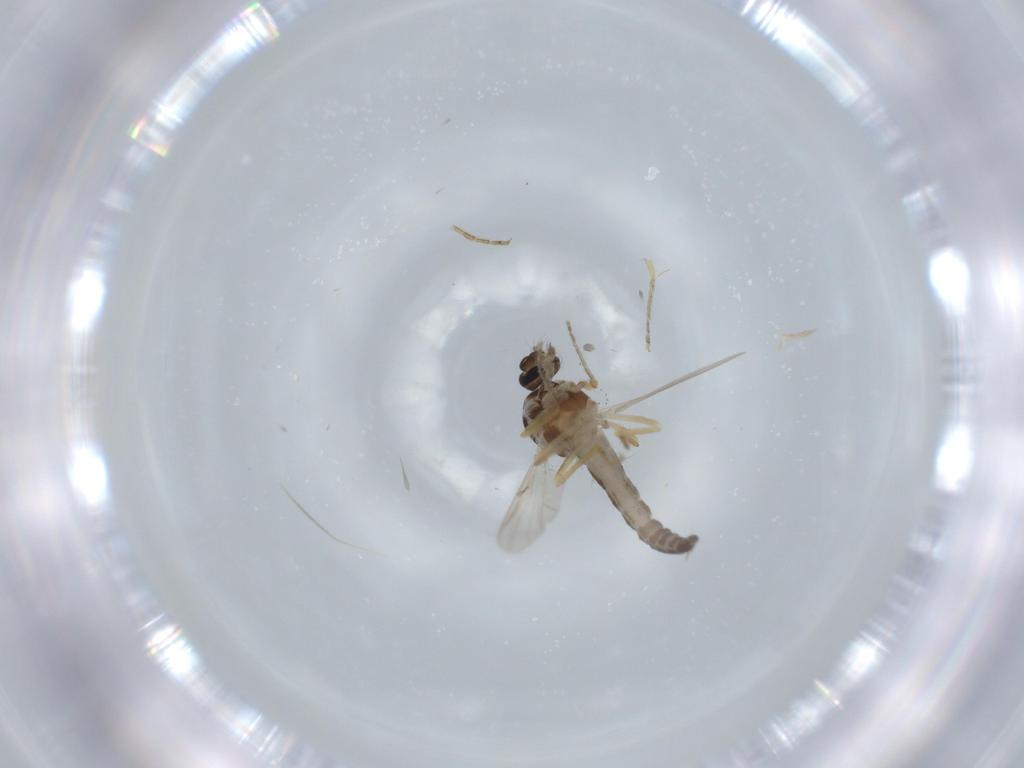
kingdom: Animalia
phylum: Arthropoda
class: Insecta
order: Diptera
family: Ceratopogonidae
